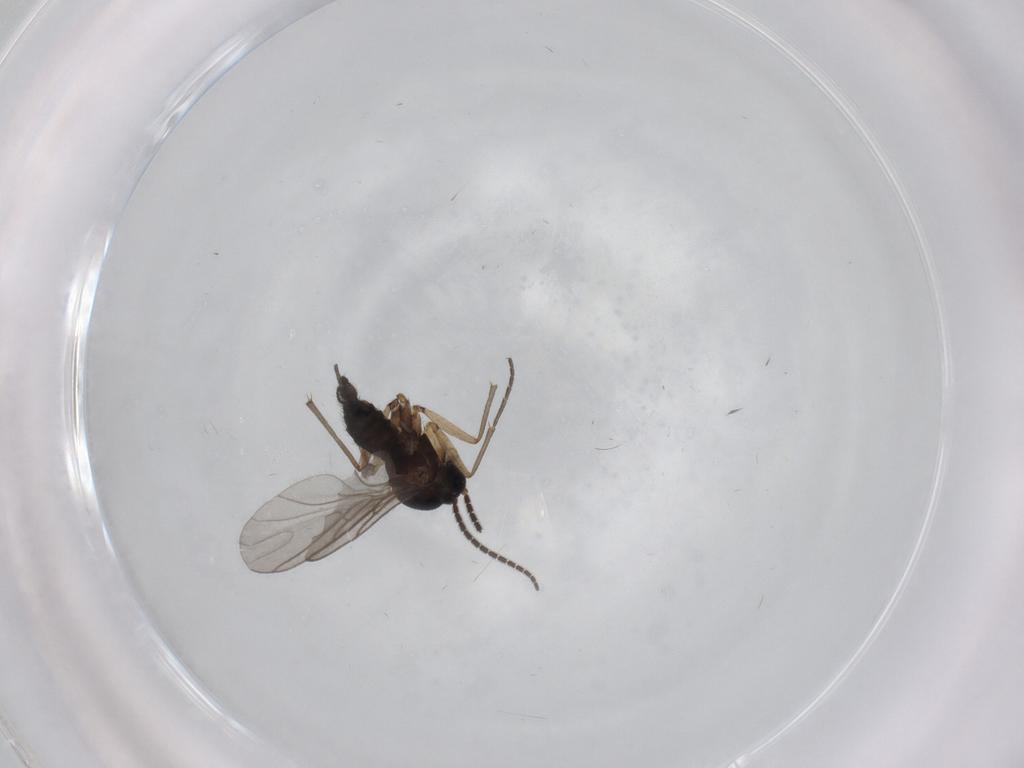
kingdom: Animalia
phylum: Arthropoda
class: Insecta
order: Diptera
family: Sciaridae
